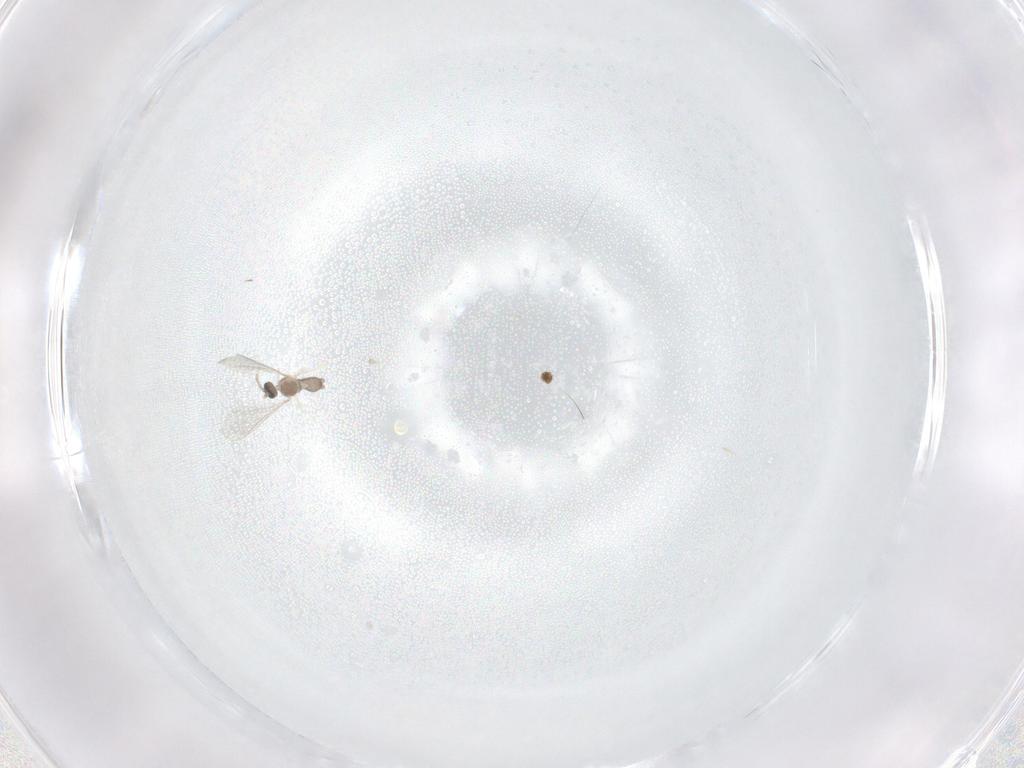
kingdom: Animalia
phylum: Arthropoda
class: Insecta
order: Diptera
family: Cecidomyiidae
